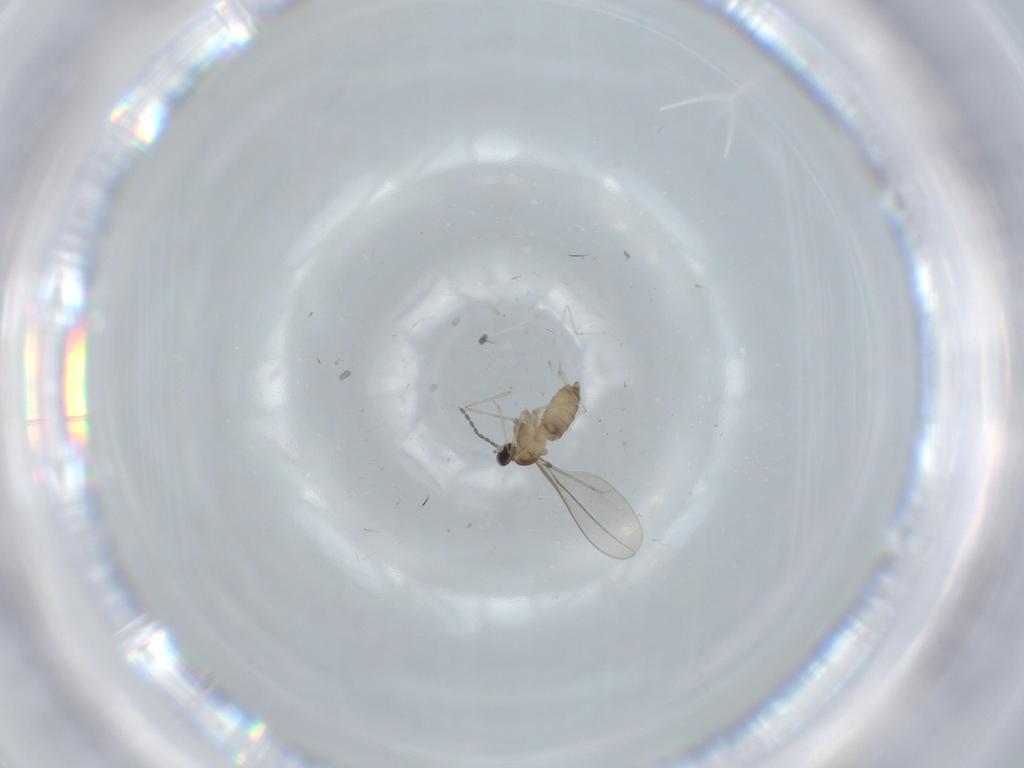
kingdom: Animalia
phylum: Arthropoda
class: Insecta
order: Diptera
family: Cecidomyiidae
